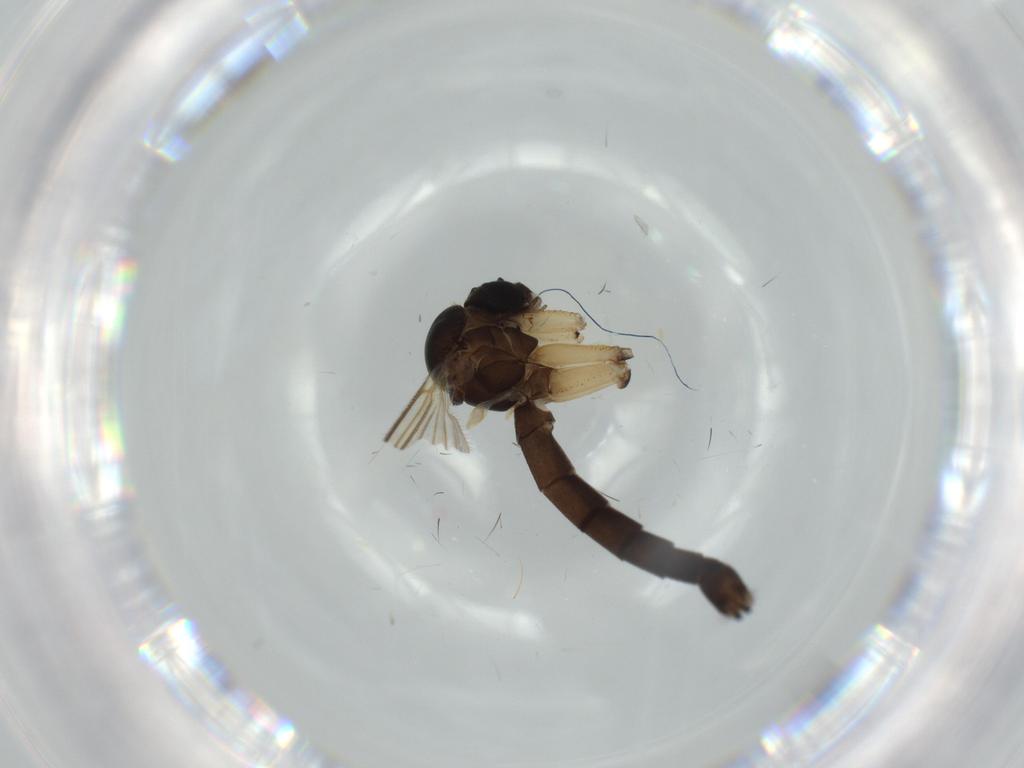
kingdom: Animalia
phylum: Arthropoda
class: Insecta
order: Diptera
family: Phoridae
